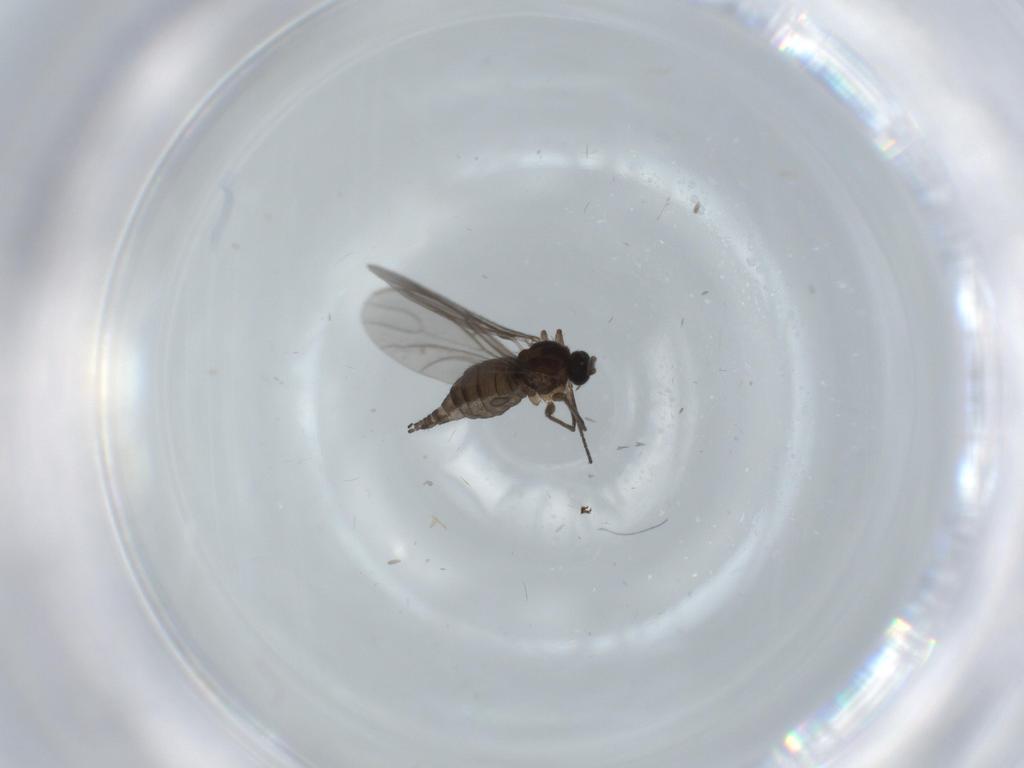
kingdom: Animalia
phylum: Arthropoda
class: Insecta
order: Diptera
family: Sciaridae
